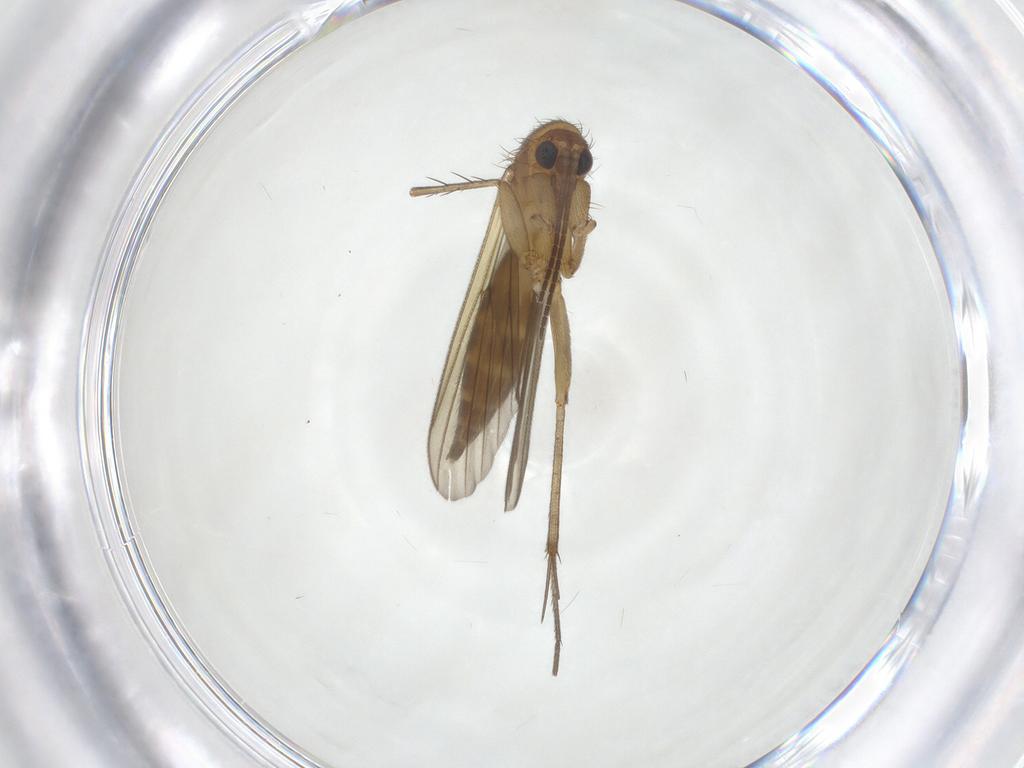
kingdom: Animalia
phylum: Arthropoda
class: Insecta
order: Diptera
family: Mycetophilidae
